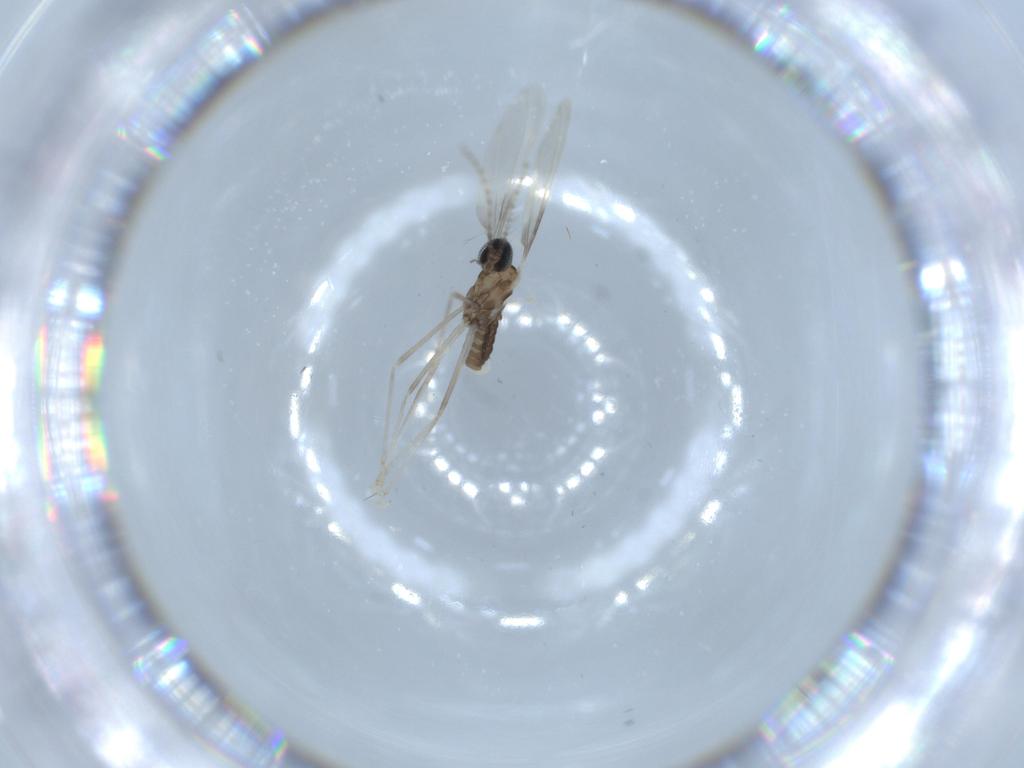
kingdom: Animalia
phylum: Arthropoda
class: Insecta
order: Diptera
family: Cecidomyiidae
